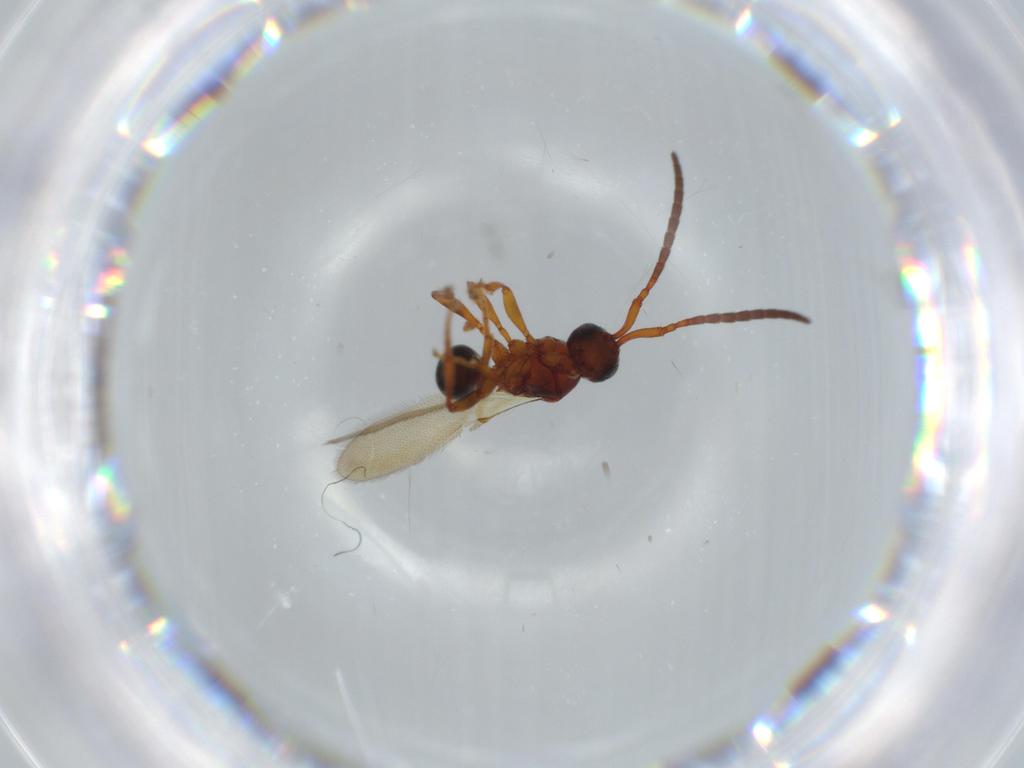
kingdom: Animalia
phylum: Arthropoda
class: Insecta
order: Hymenoptera
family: Diapriidae
